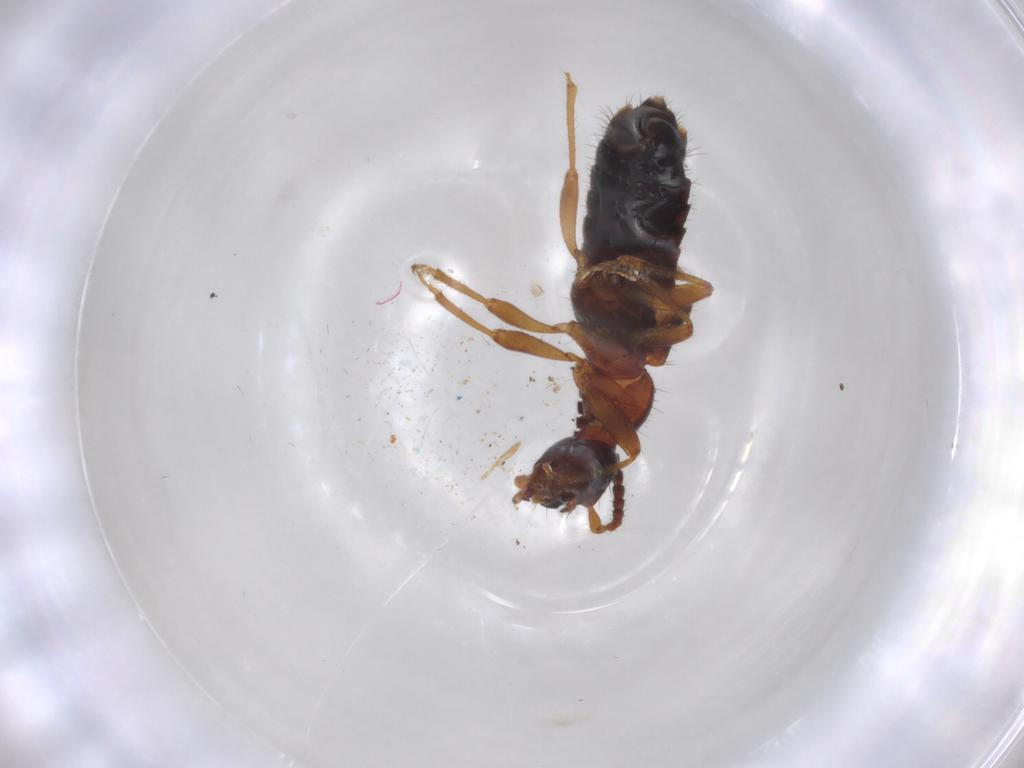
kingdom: Animalia
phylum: Arthropoda
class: Insecta
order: Coleoptera
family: Staphylinidae
